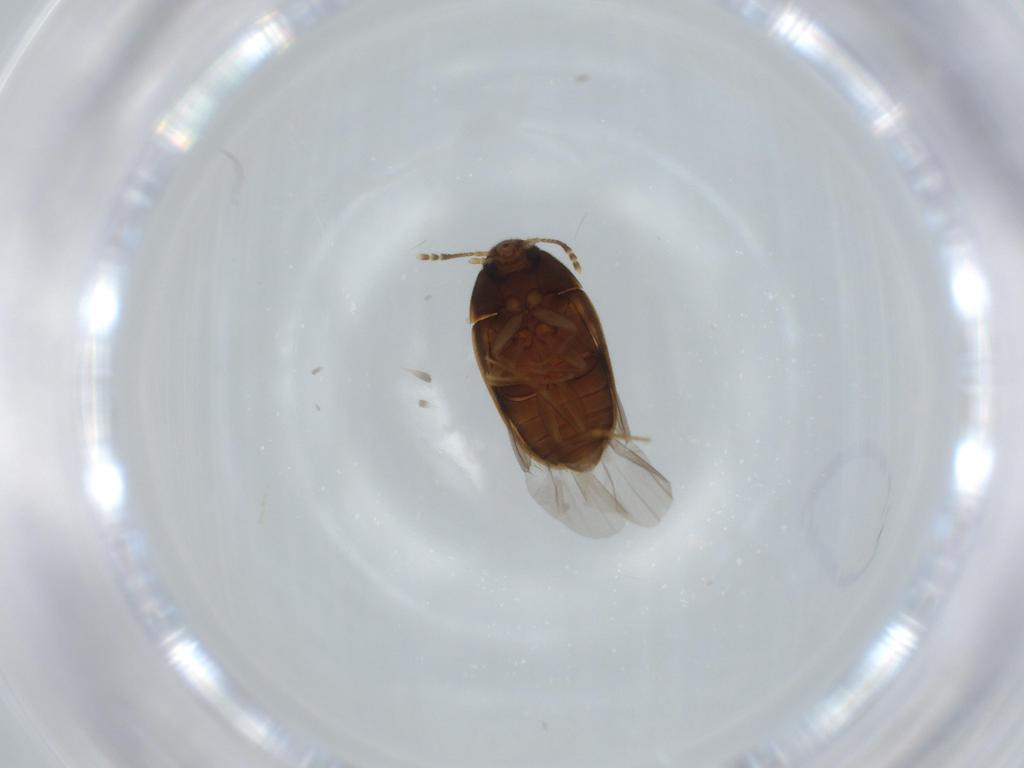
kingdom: Animalia
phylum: Arthropoda
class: Insecta
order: Coleoptera
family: Mycetophagidae
